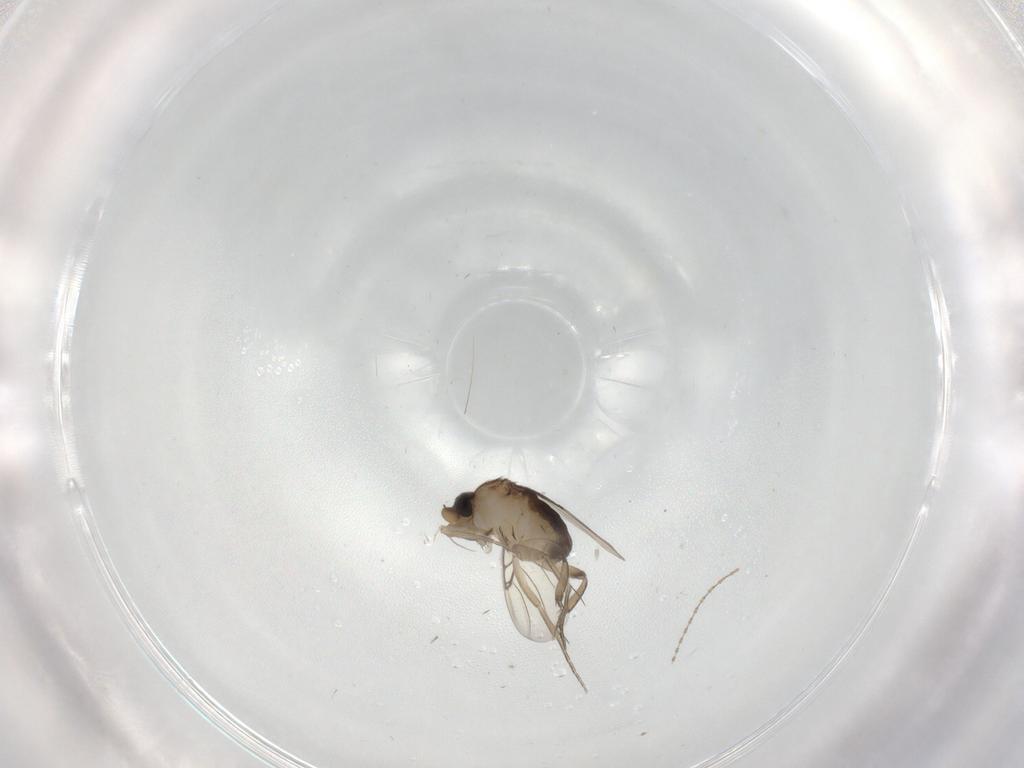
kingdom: Animalia
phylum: Arthropoda
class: Insecta
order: Diptera
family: Phoridae
